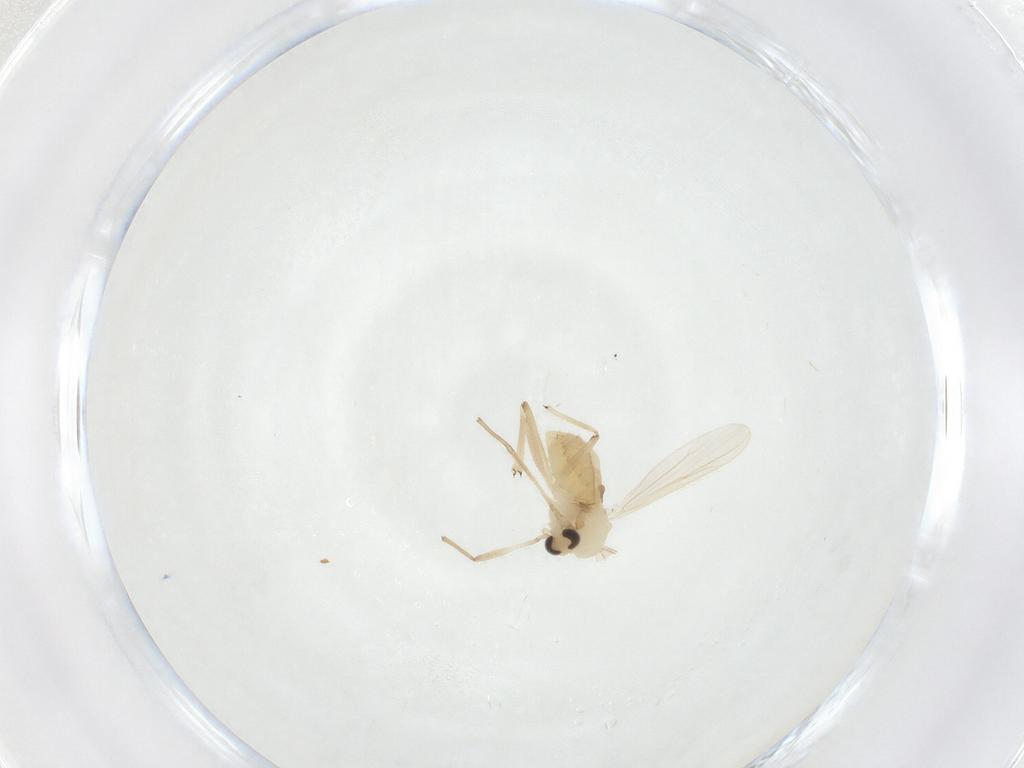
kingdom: Animalia
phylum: Arthropoda
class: Insecta
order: Diptera
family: Chironomidae
